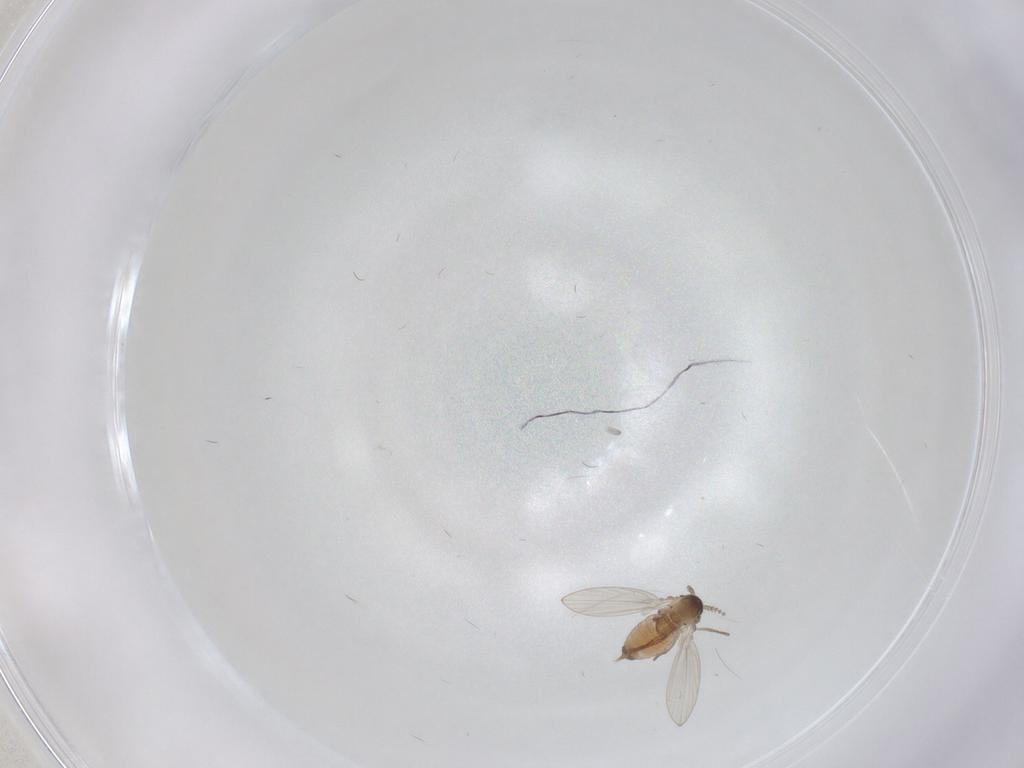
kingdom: Animalia
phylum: Arthropoda
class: Insecta
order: Diptera
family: Psychodidae
